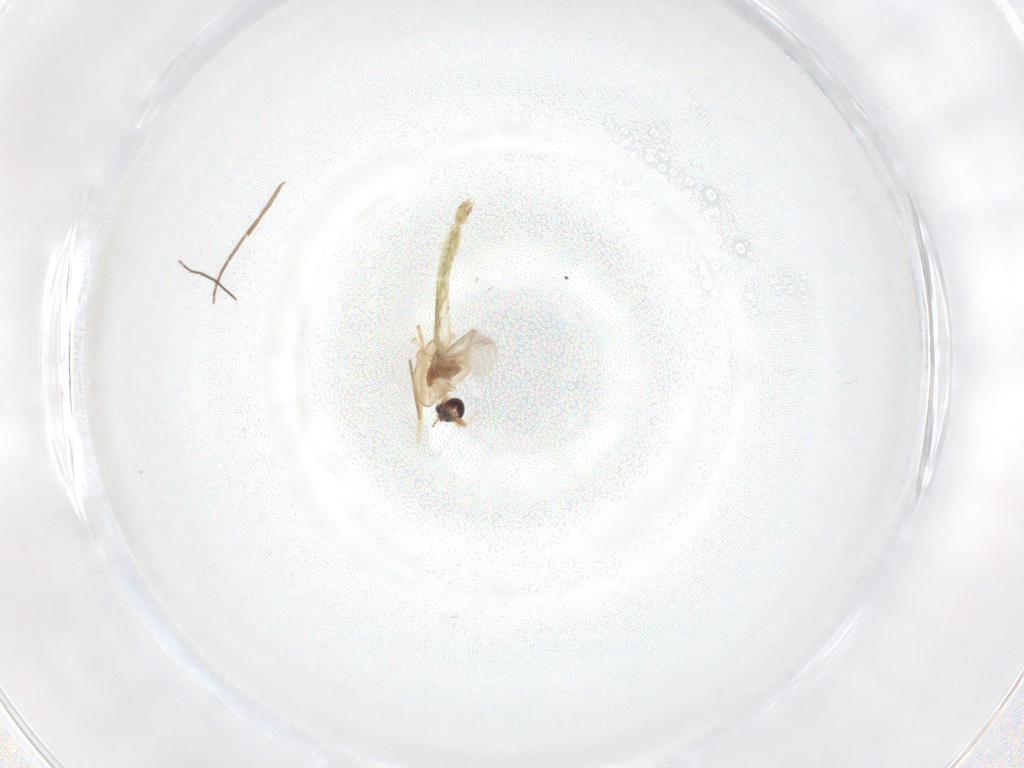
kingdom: Animalia
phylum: Arthropoda
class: Insecta
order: Diptera
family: Chironomidae
